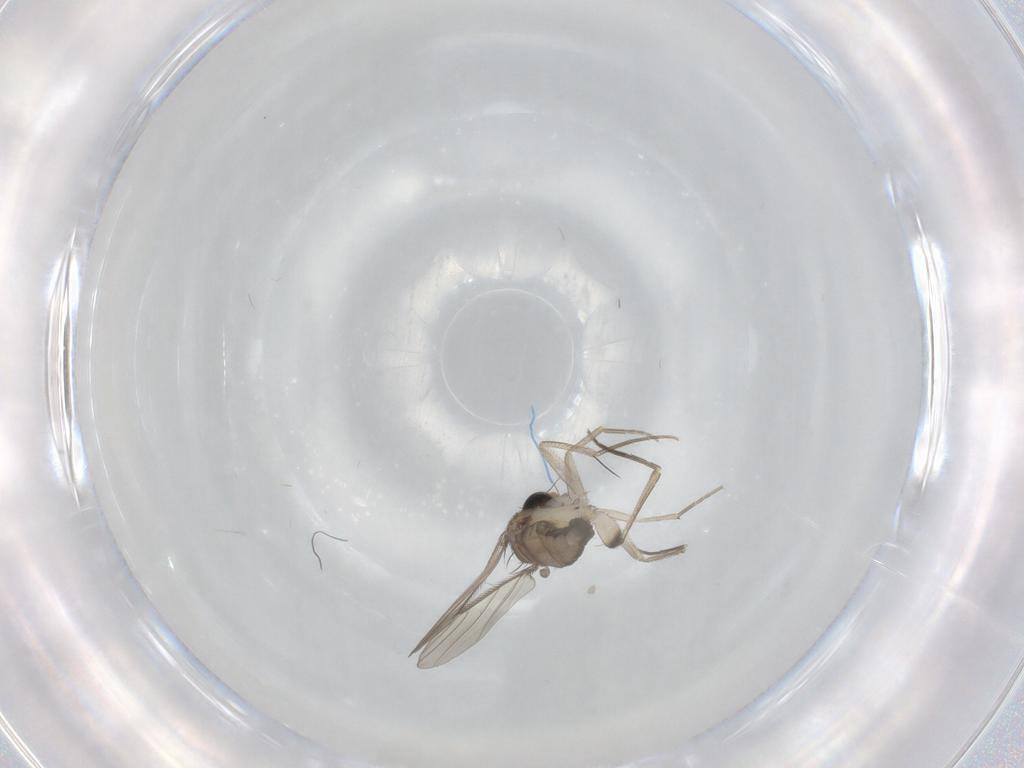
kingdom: Animalia
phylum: Arthropoda
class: Insecta
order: Diptera
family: Phoridae
